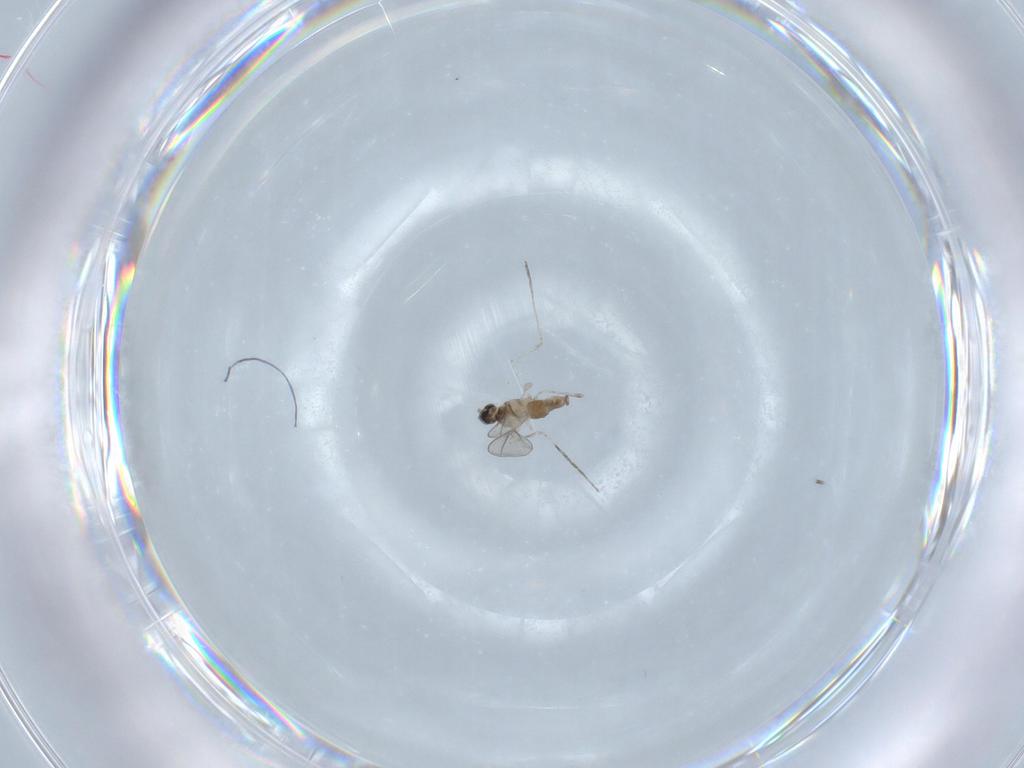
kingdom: Animalia
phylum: Arthropoda
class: Insecta
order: Diptera
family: Cecidomyiidae
